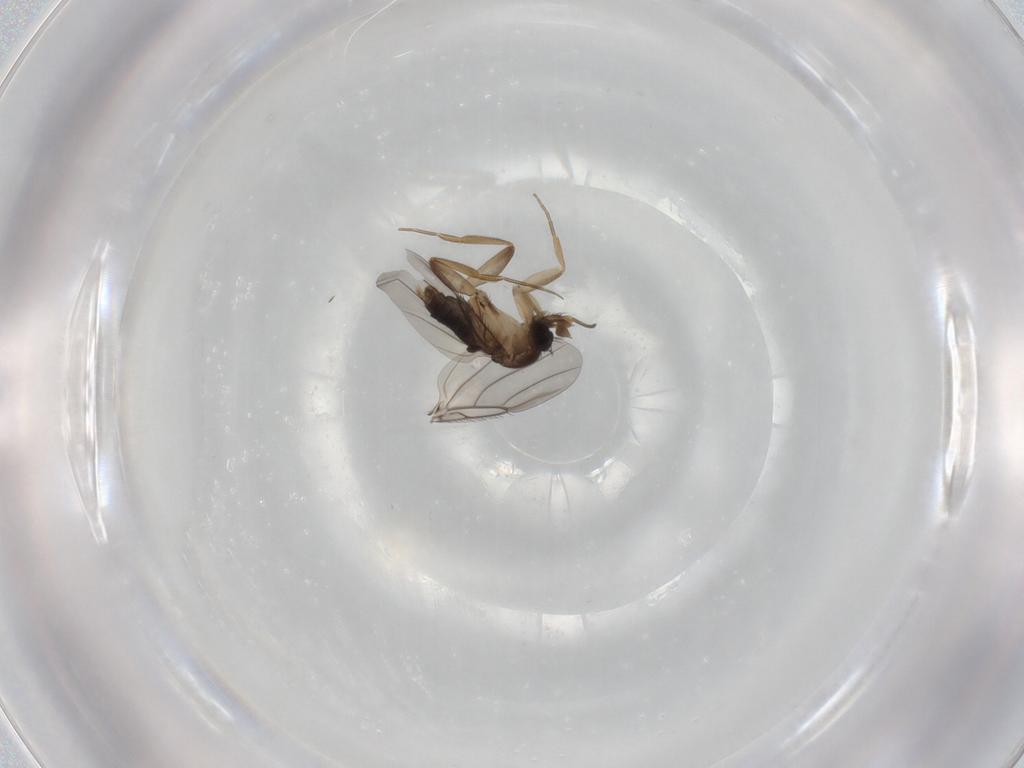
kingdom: Animalia
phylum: Arthropoda
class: Insecta
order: Diptera
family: Phoridae
